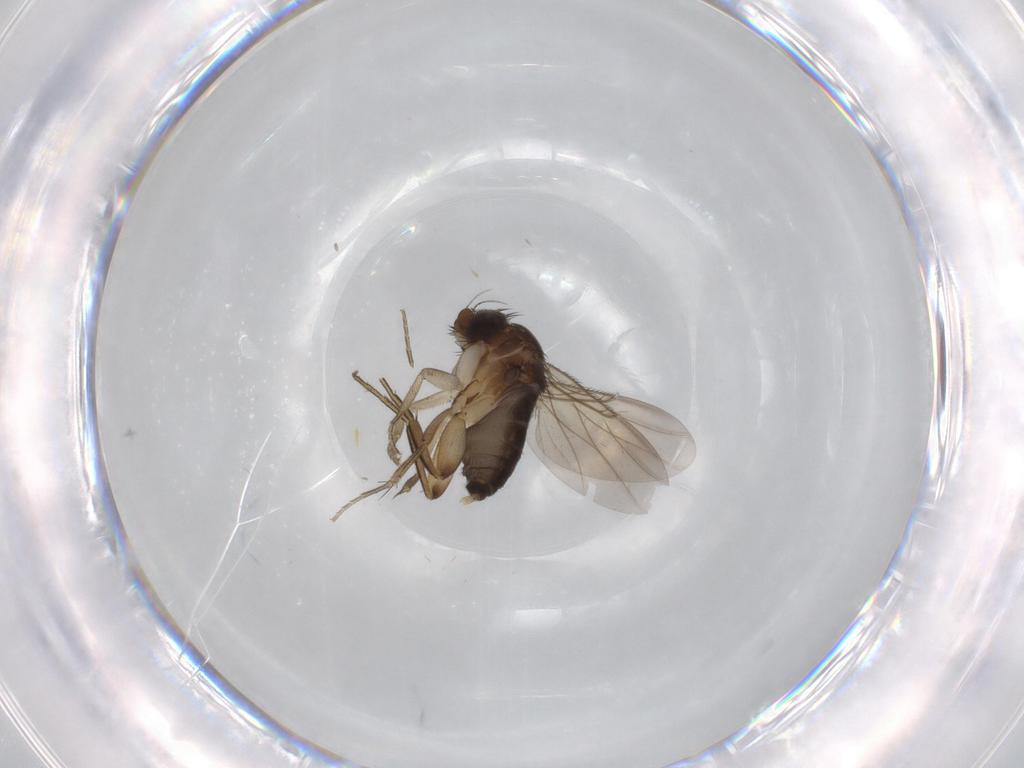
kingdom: Animalia
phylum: Arthropoda
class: Insecta
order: Diptera
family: Phoridae
